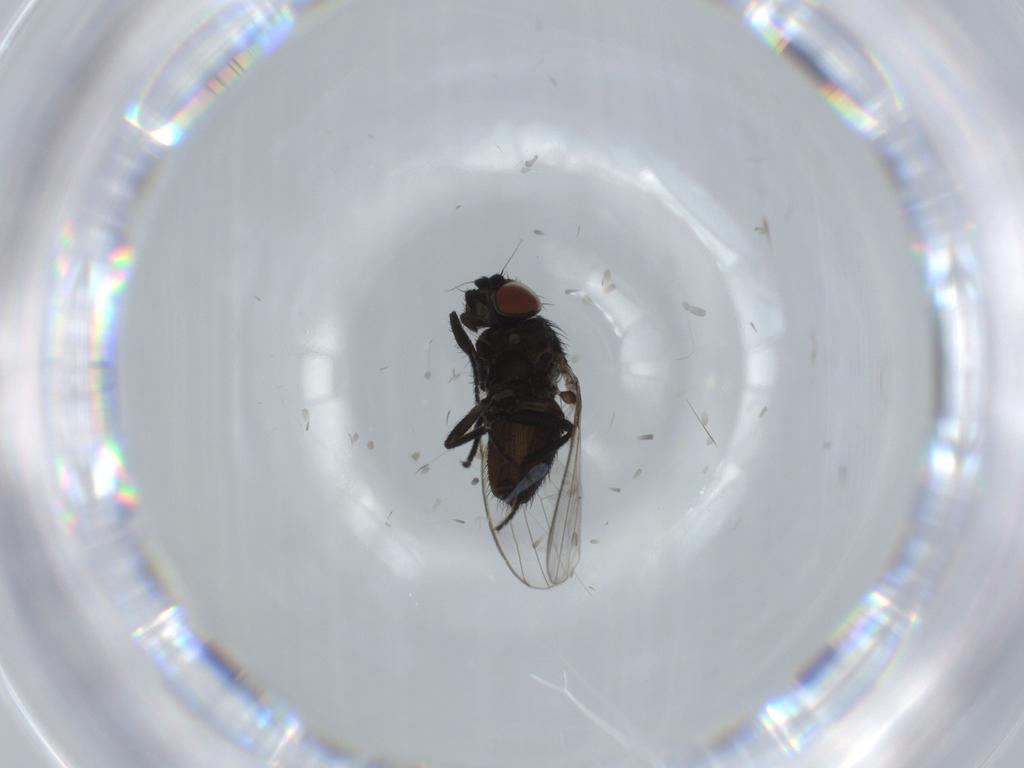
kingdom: Animalia
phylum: Arthropoda
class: Insecta
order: Diptera
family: Milichiidae
